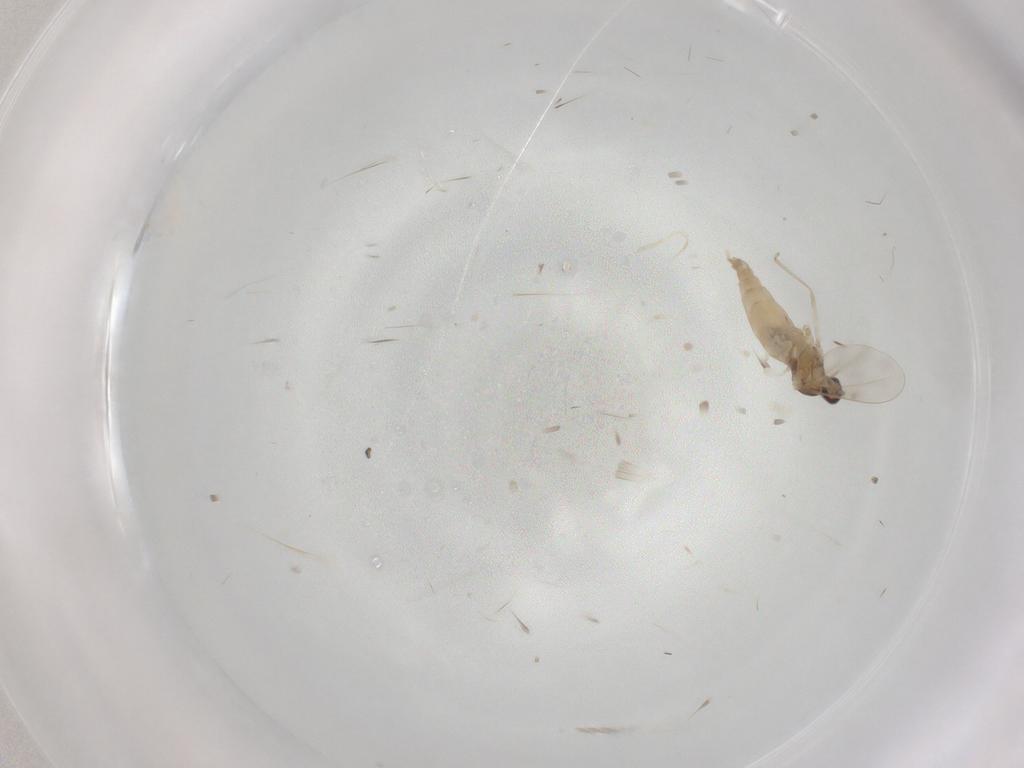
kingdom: Animalia
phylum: Arthropoda
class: Insecta
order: Diptera
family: Cecidomyiidae
